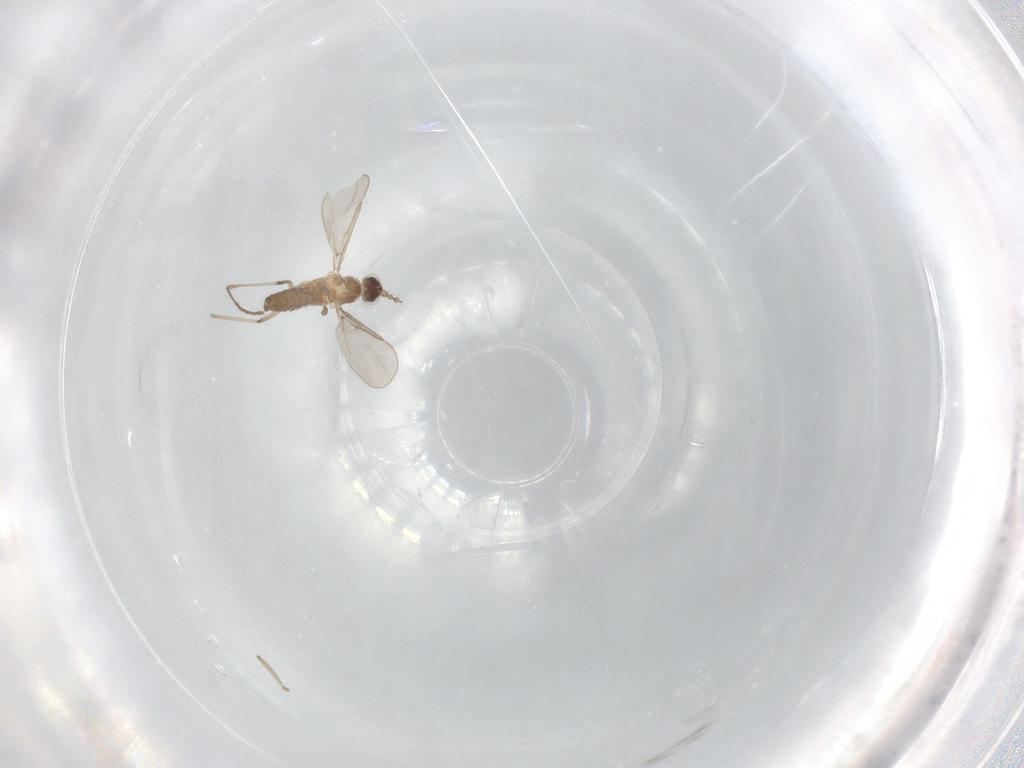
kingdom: Animalia
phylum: Arthropoda
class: Insecta
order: Diptera
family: Cecidomyiidae
